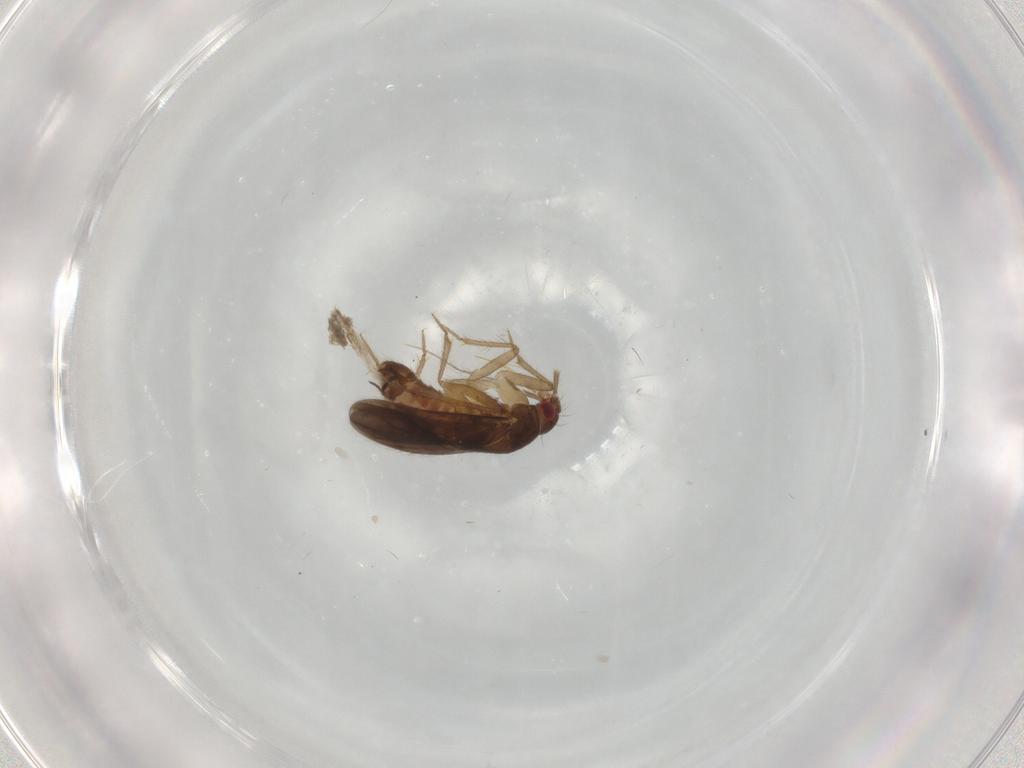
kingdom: Animalia
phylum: Arthropoda
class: Insecta
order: Hemiptera
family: Ceratocombidae
